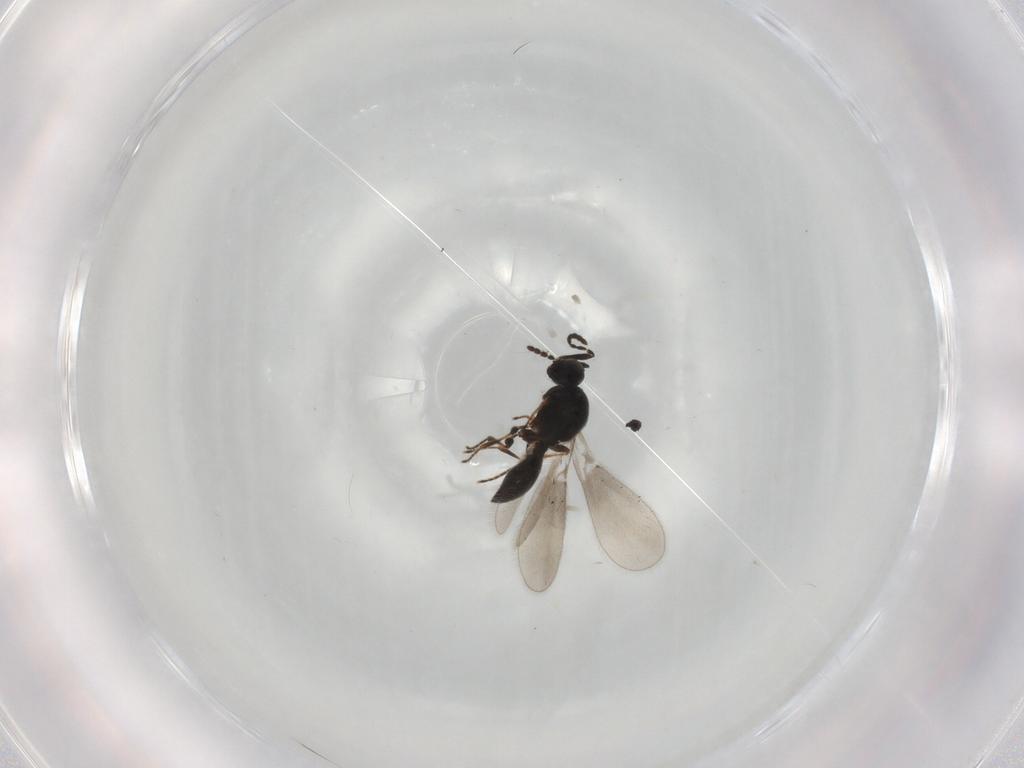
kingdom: Animalia
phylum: Arthropoda
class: Insecta
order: Hymenoptera
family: Platygastridae
